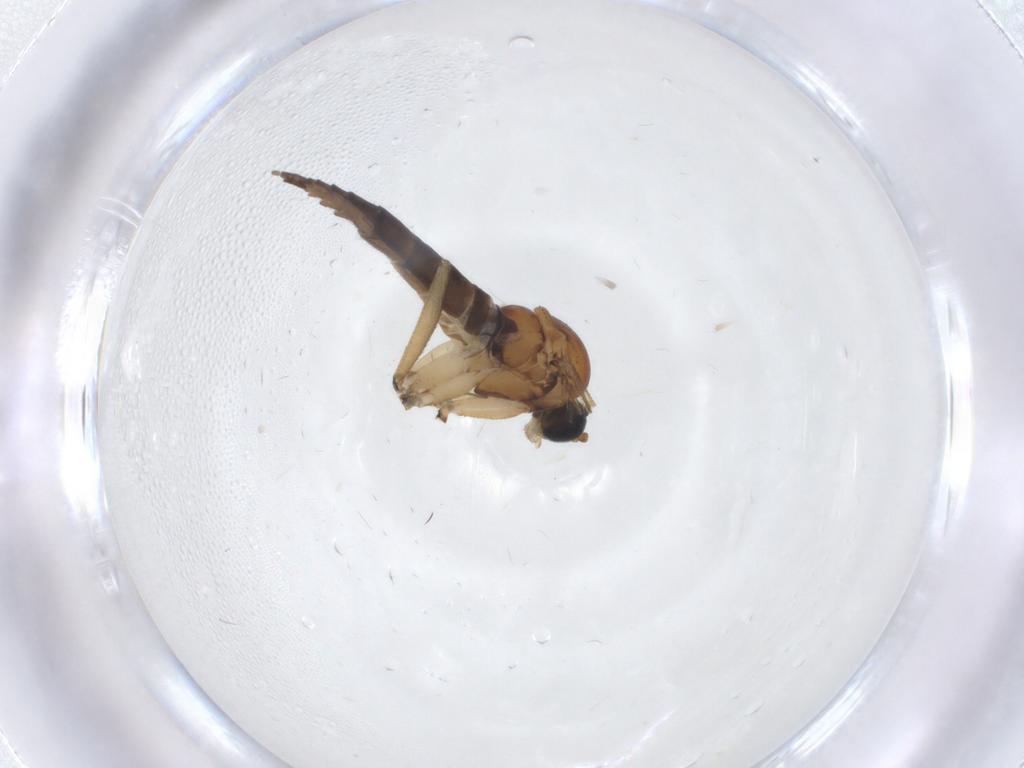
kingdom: Animalia
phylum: Arthropoda
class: Insecta
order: Diptera
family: Sciaridae
